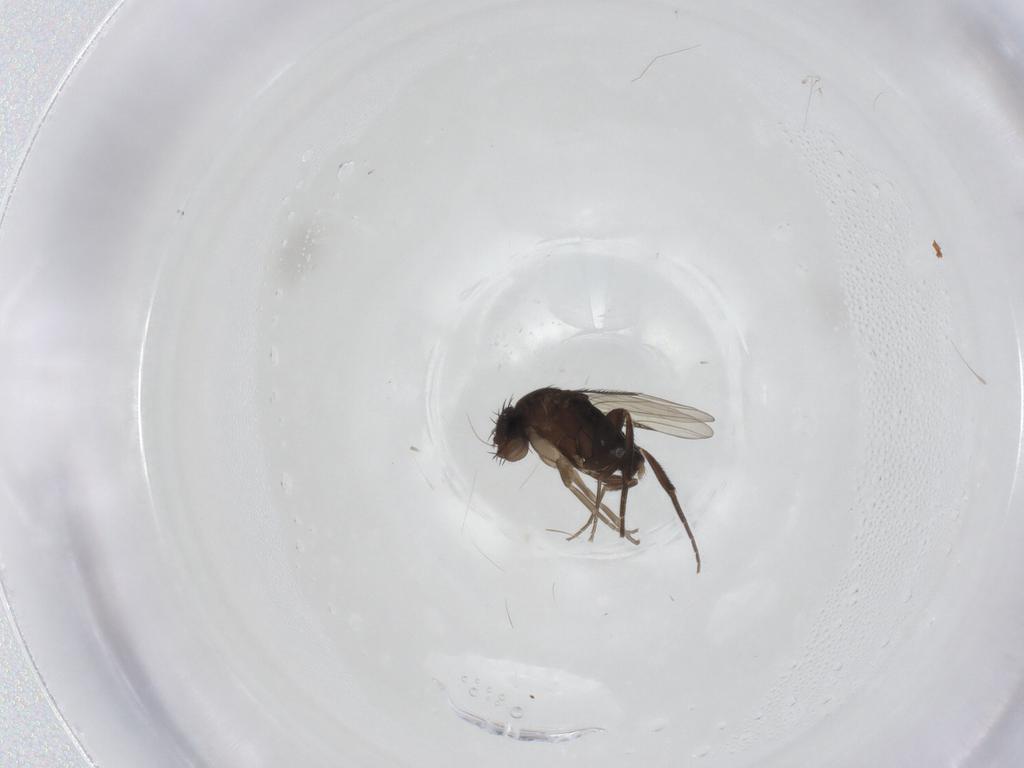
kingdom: Animalia
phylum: Arthropoda
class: Insecta
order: Diptera
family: Phoridae
